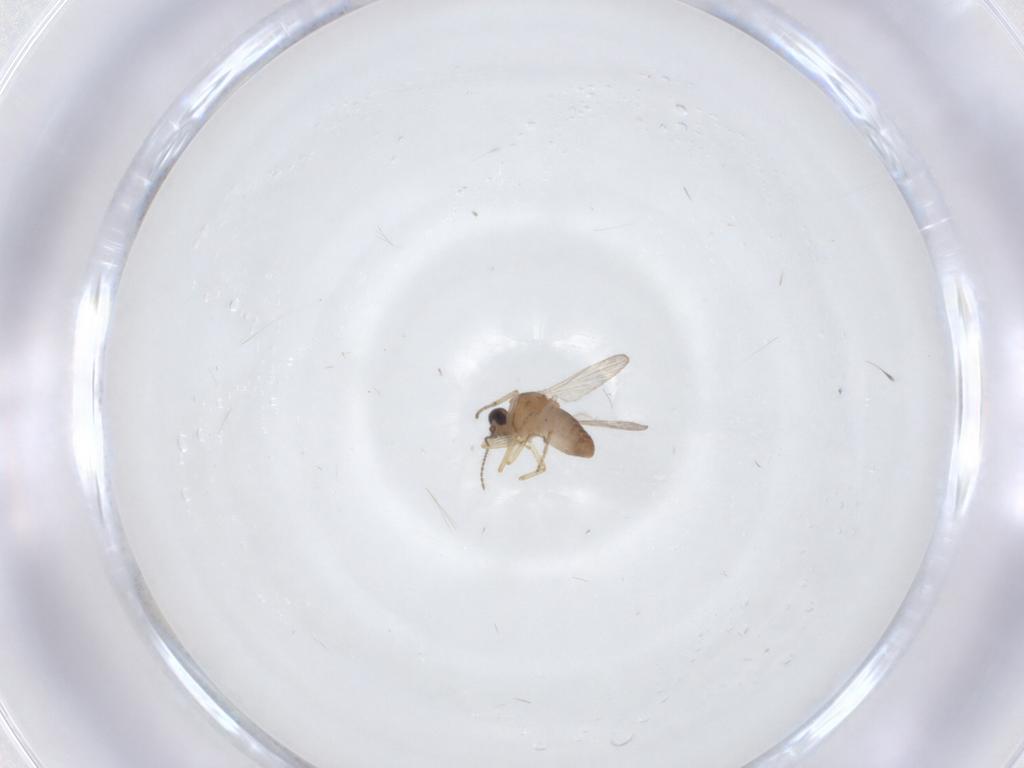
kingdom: Animalia
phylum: Arthropoda
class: Insecta
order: Diptera
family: Ceratopogonidae
